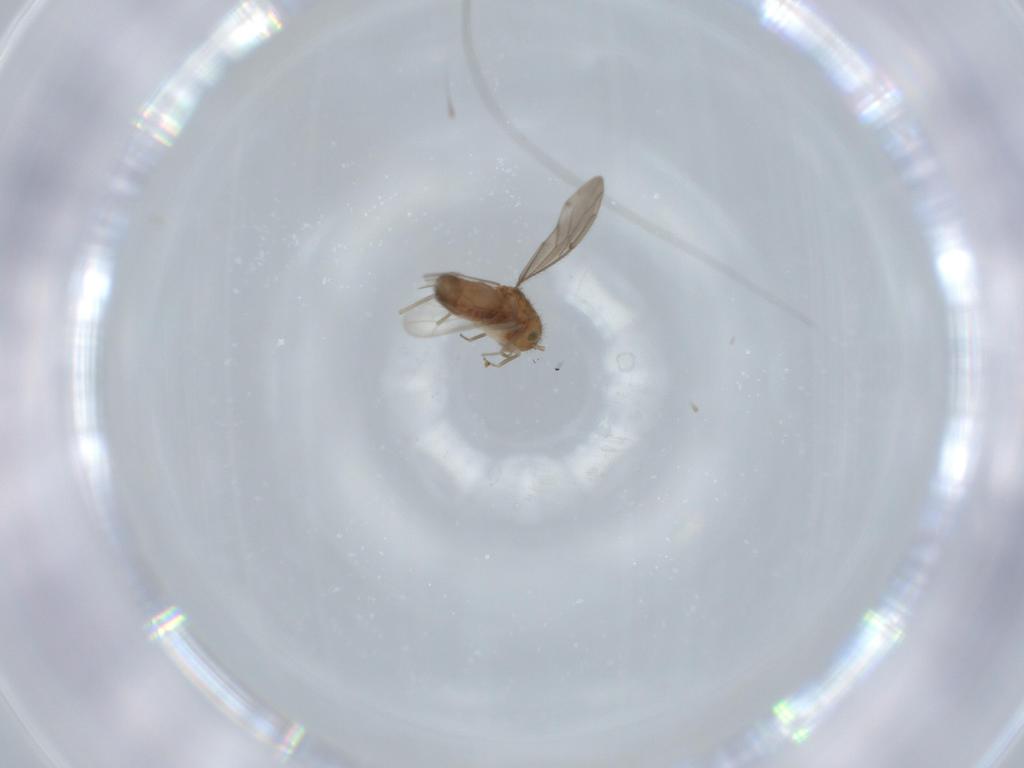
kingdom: Animalia
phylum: Arthropoda
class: Insecta
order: Psocodea
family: Ectopsocidae
